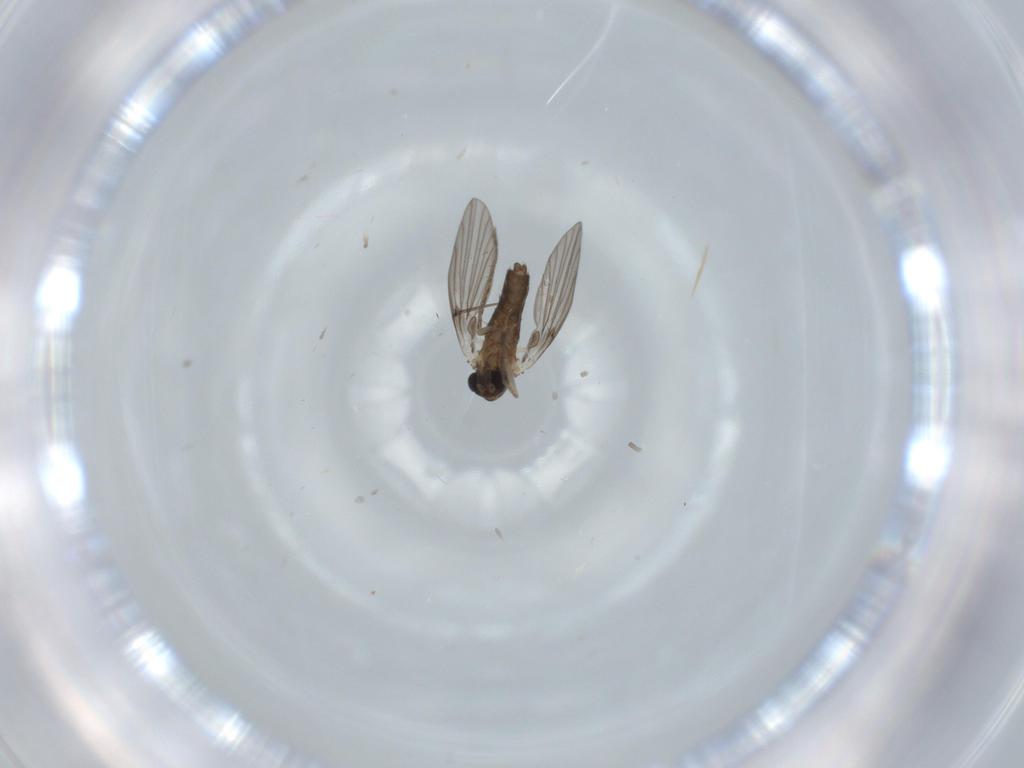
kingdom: Animalia
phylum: Arthropoda
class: Insecta
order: Diptera
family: Psychodidae
